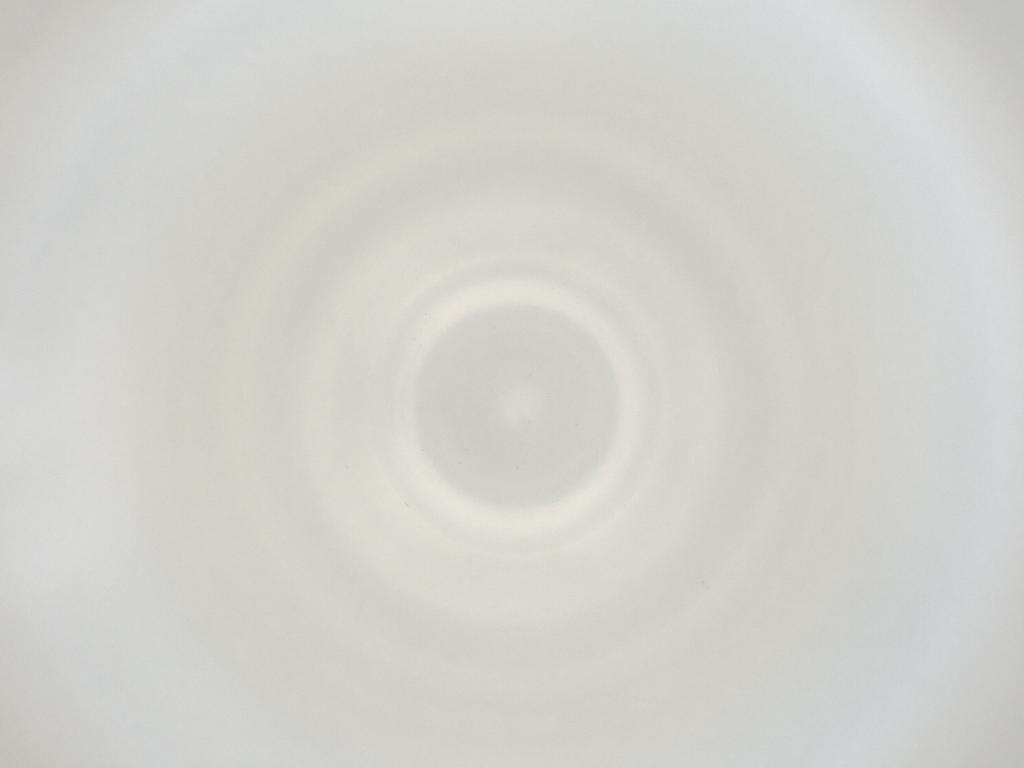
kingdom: Animalia
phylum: Arthropoda
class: Insecta
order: Diptera
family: Cecidomyiidae
